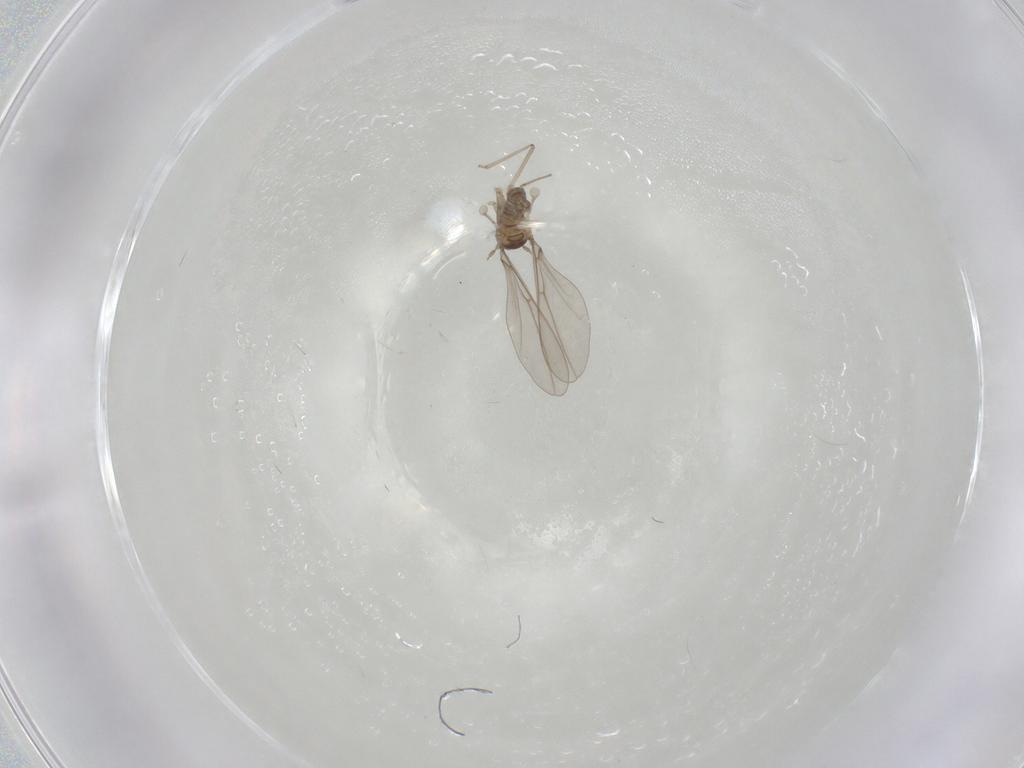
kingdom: Animalia
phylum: Arthropoda
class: Insecta
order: Diptera
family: Cecidomyiidae
